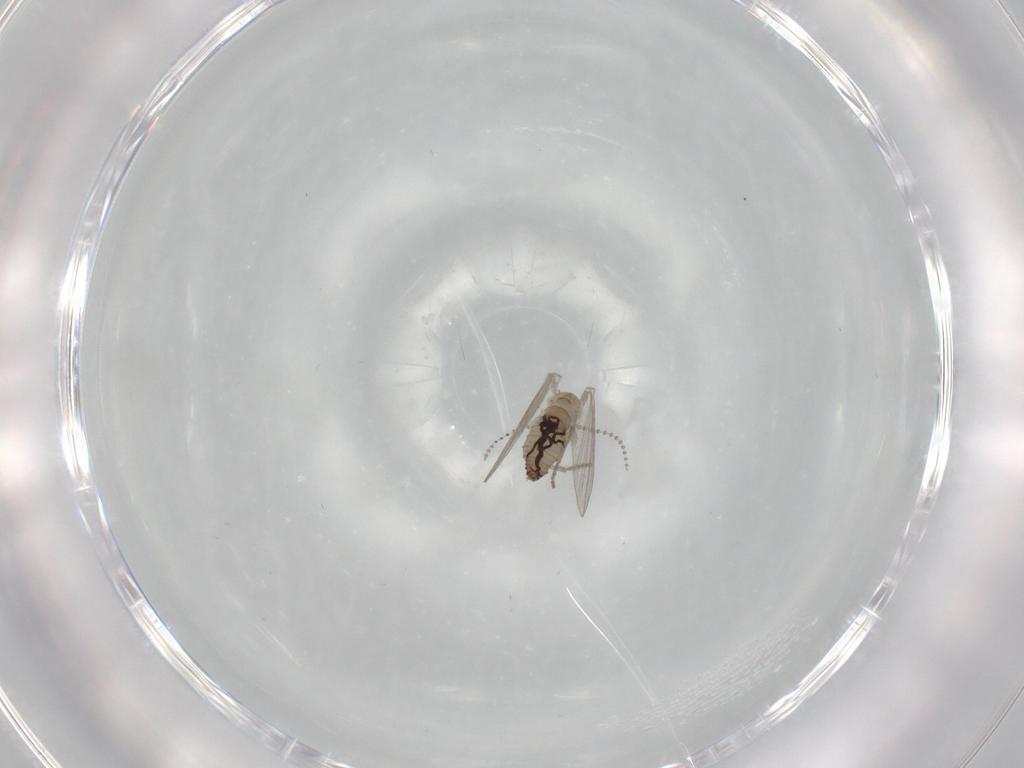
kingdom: Animalia
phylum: Arthropoda
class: Insecta
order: Diptera
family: Psychodidae
